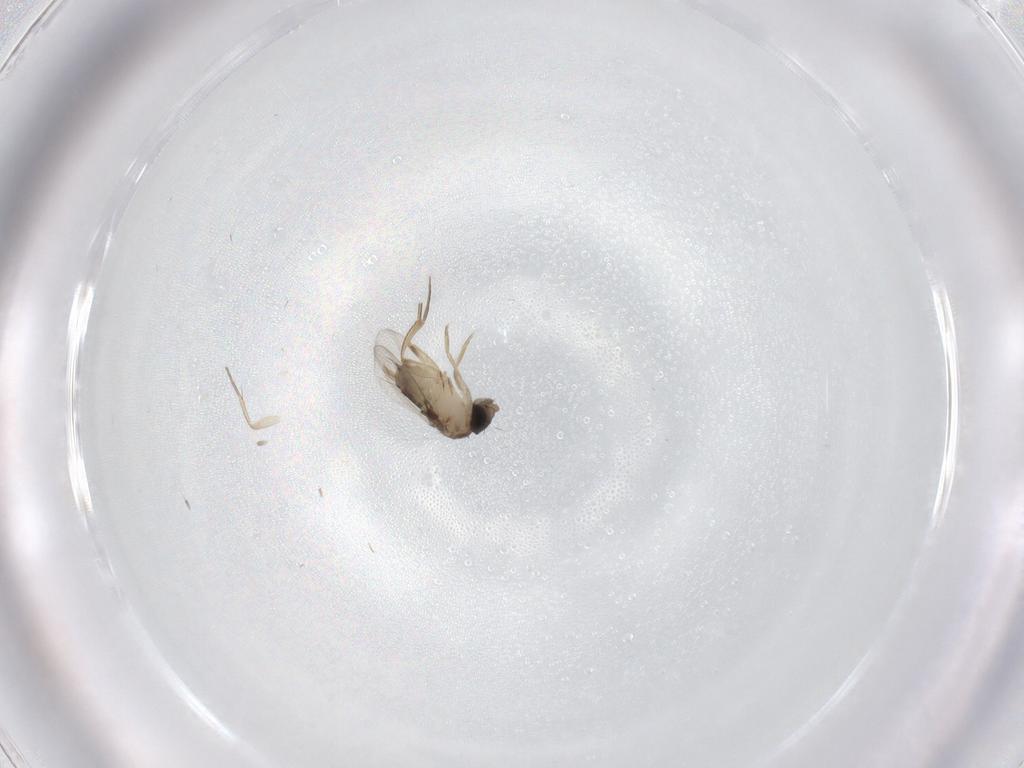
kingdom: Animalia
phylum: Arthropoda
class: Insecta
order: Diptera
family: Phoridae
